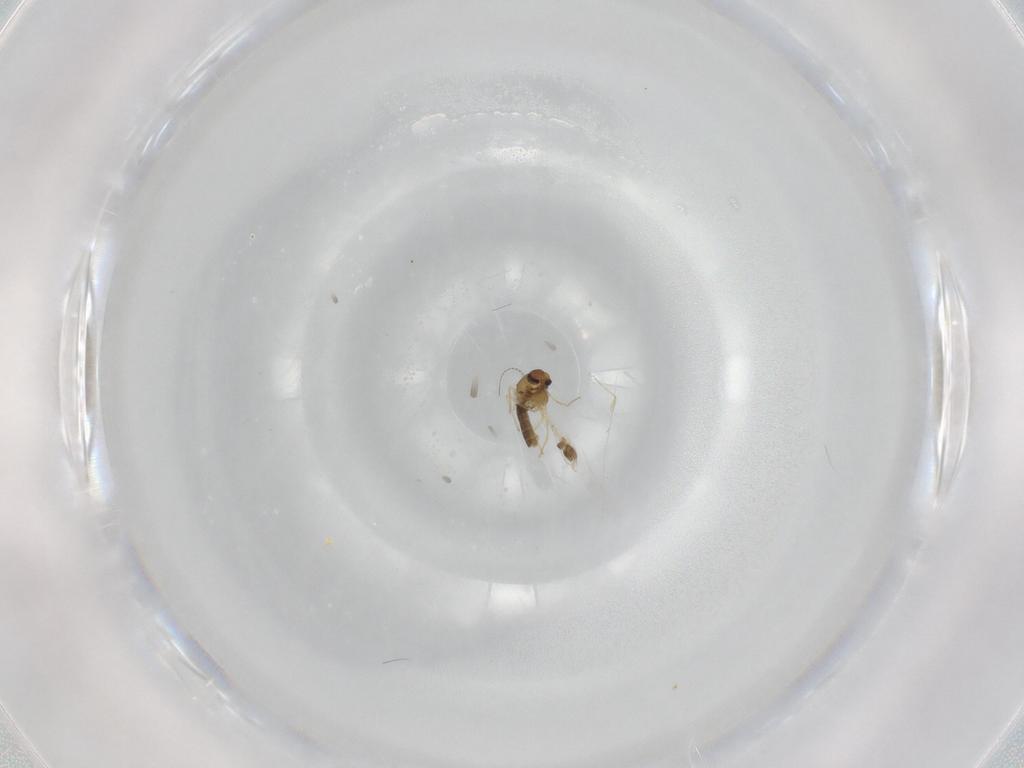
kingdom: Animalia
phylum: Arthropoda
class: Insecta
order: Diptera
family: Chironomidae
